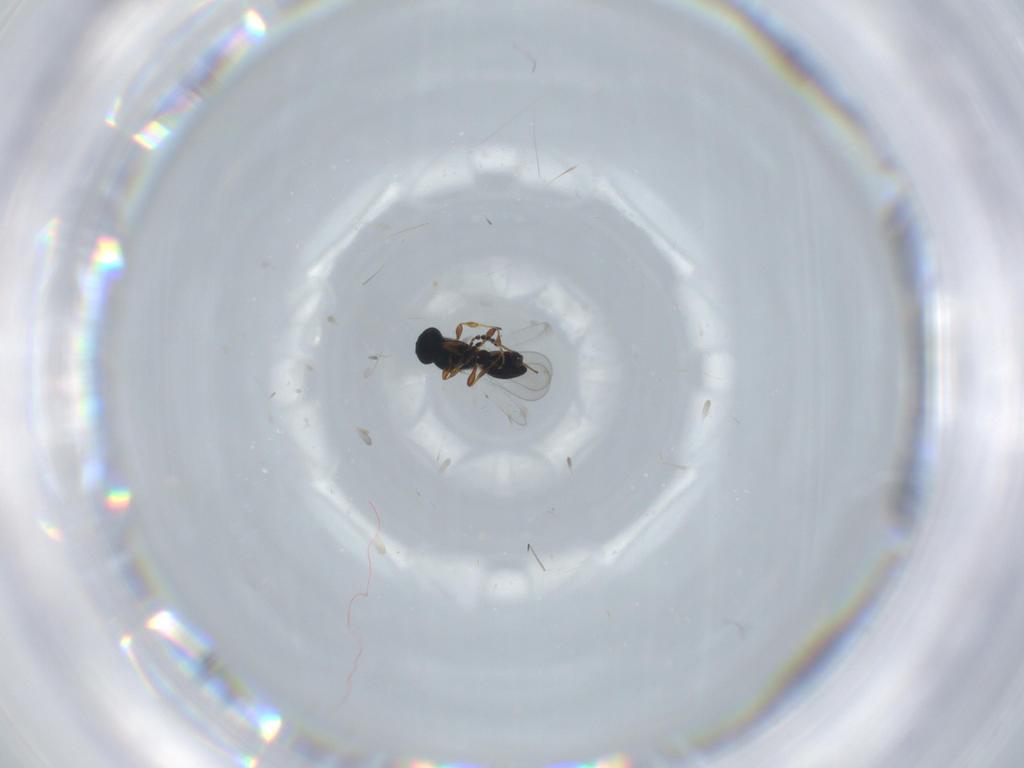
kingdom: Animalia
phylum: Arthropoda
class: Insecta
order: Hymenoptera
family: Platygastridae
